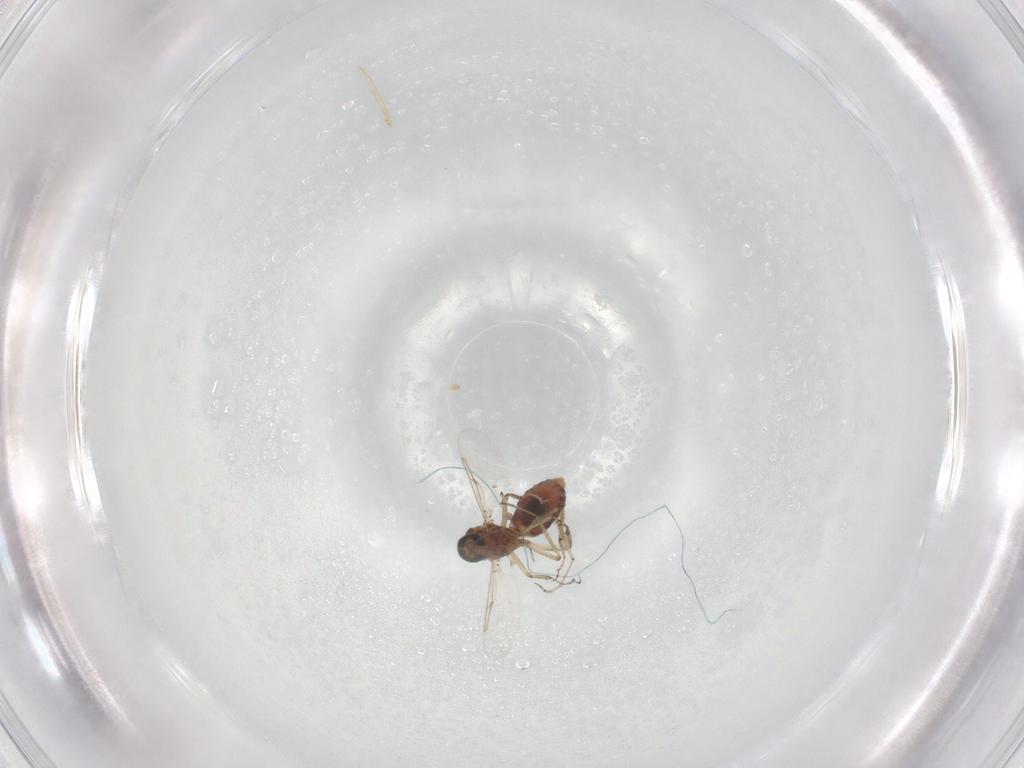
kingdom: Animalia
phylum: Arthropoda
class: Insecta
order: Diptera
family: Ceratopogonidae
